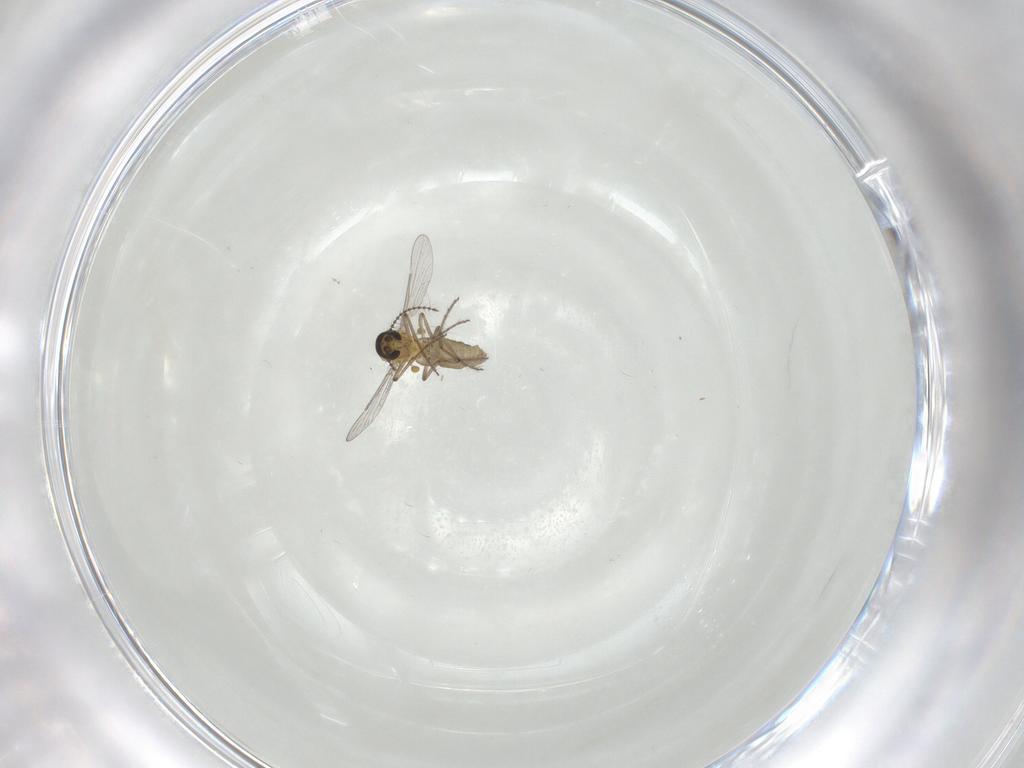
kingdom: Animalia
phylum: Arthropoda
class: Insecta
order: Diptera
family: Ceratopogonidae
